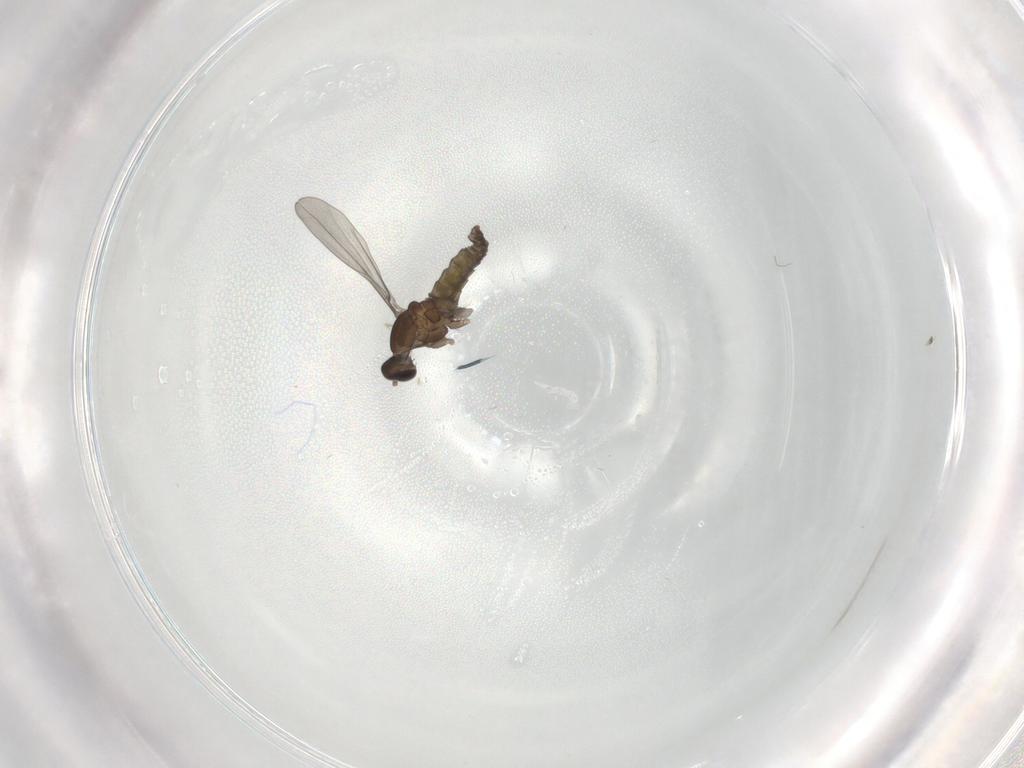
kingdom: Animalia
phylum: Arthropoda
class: Insecta
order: Diptera
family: Cecidomyiidae
